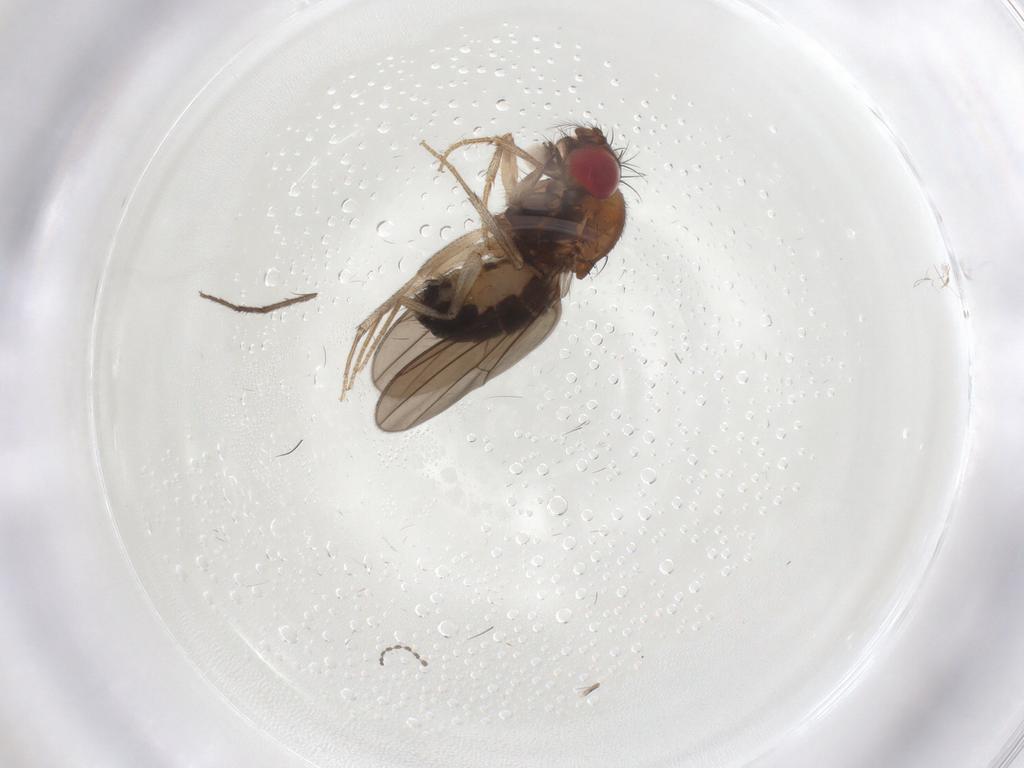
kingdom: Animalia
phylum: Arthropoda
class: Insecta
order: Diptera
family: Drosophilidae
